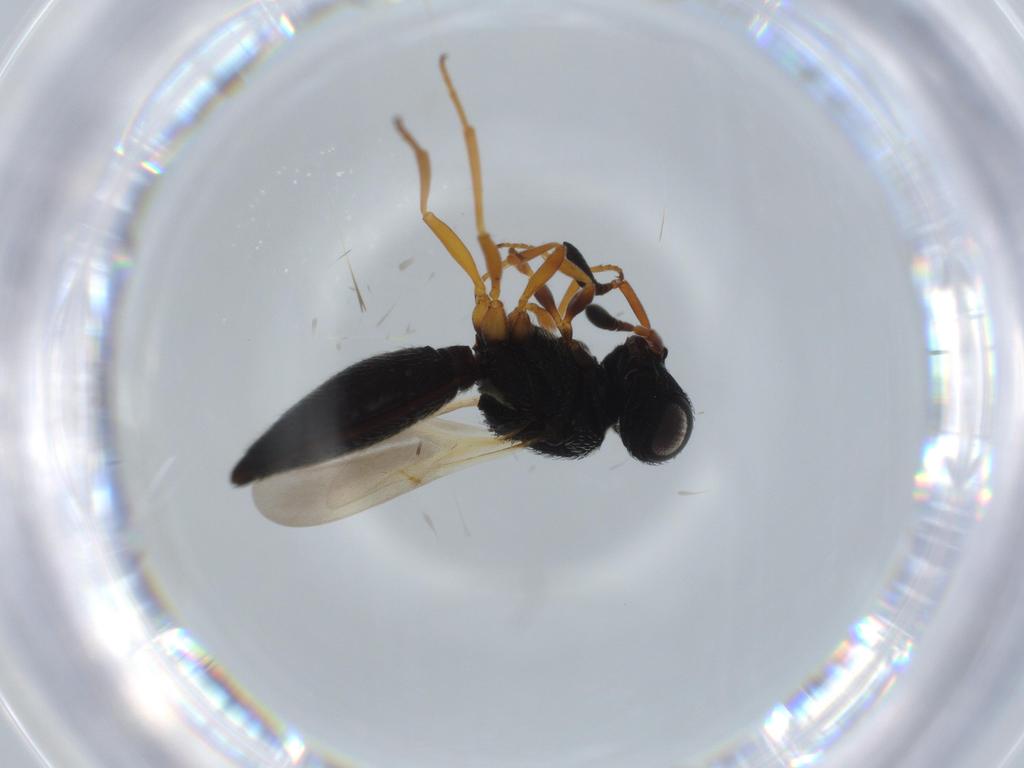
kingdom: Animalia
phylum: Arthropoda
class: Insecta
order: Hymenoptera
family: Scelionidae
